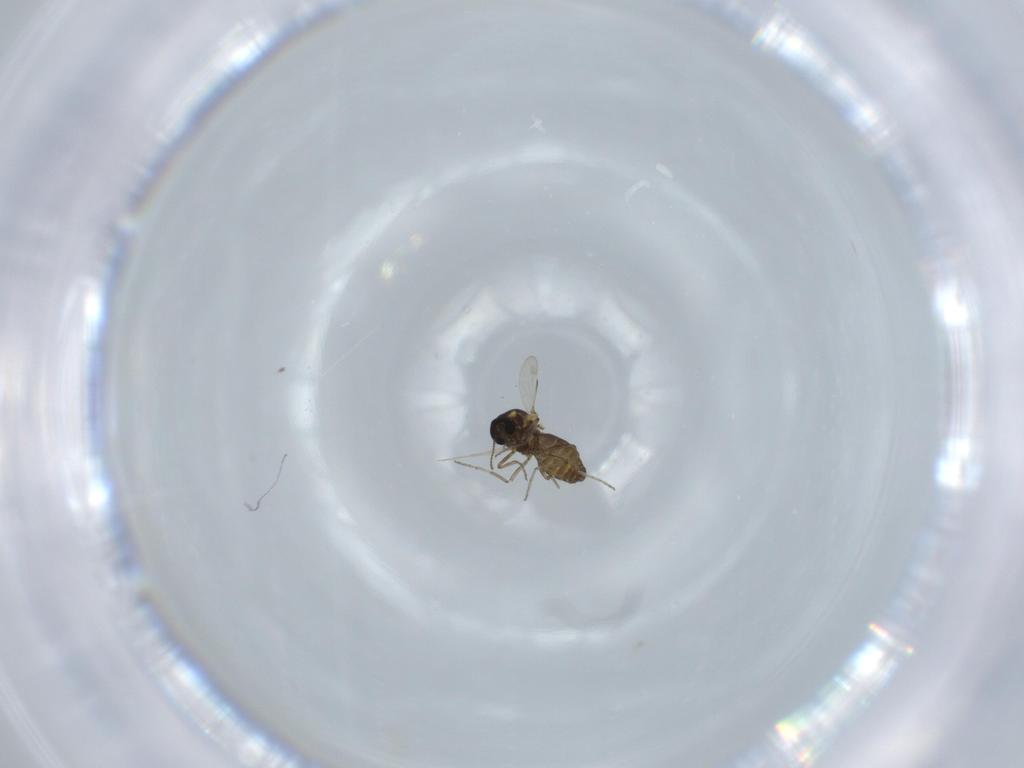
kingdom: Animalia
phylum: Arthropoda
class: Insecta
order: Diptera
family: Ceratopogonidae
